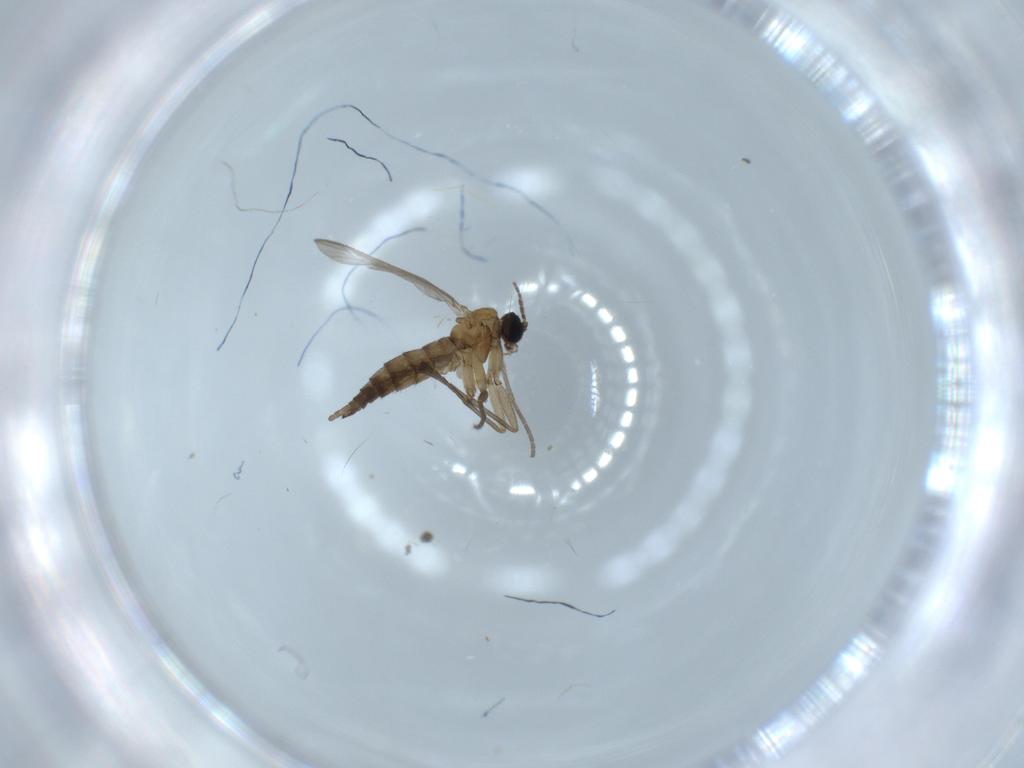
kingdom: Animalia
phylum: Arthropoda
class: Insecta
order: Diptera
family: Sciaridae
